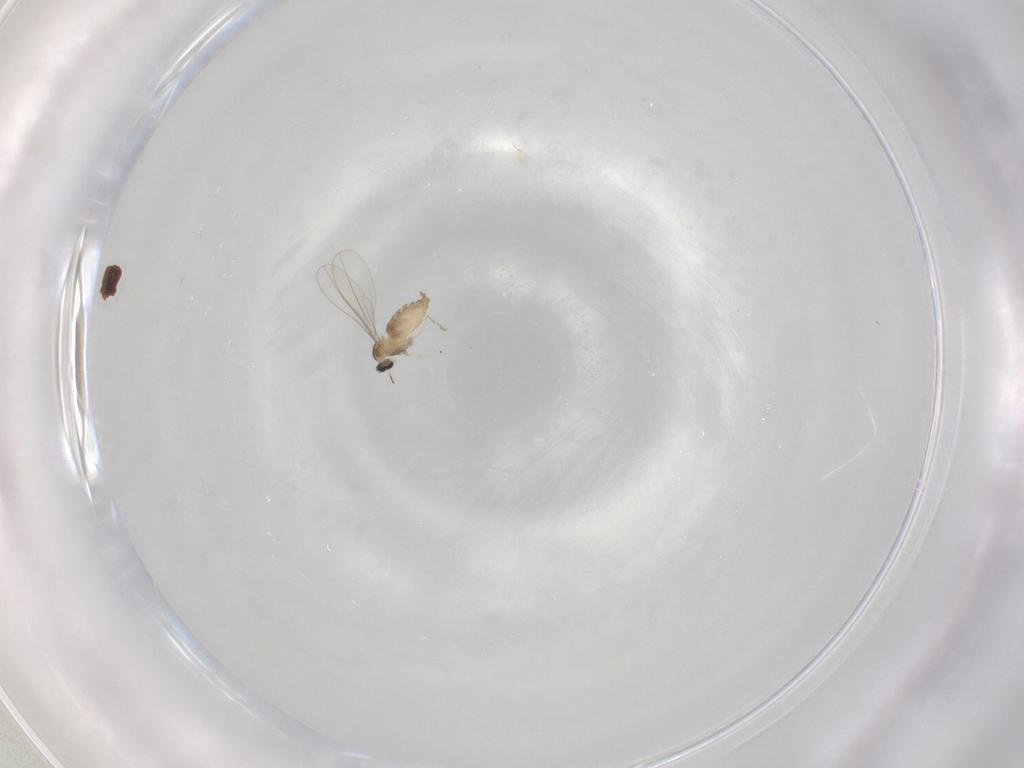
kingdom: Animalia
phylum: Arthropoda
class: Insecta
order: Diptera
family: Cecidomyiidae
